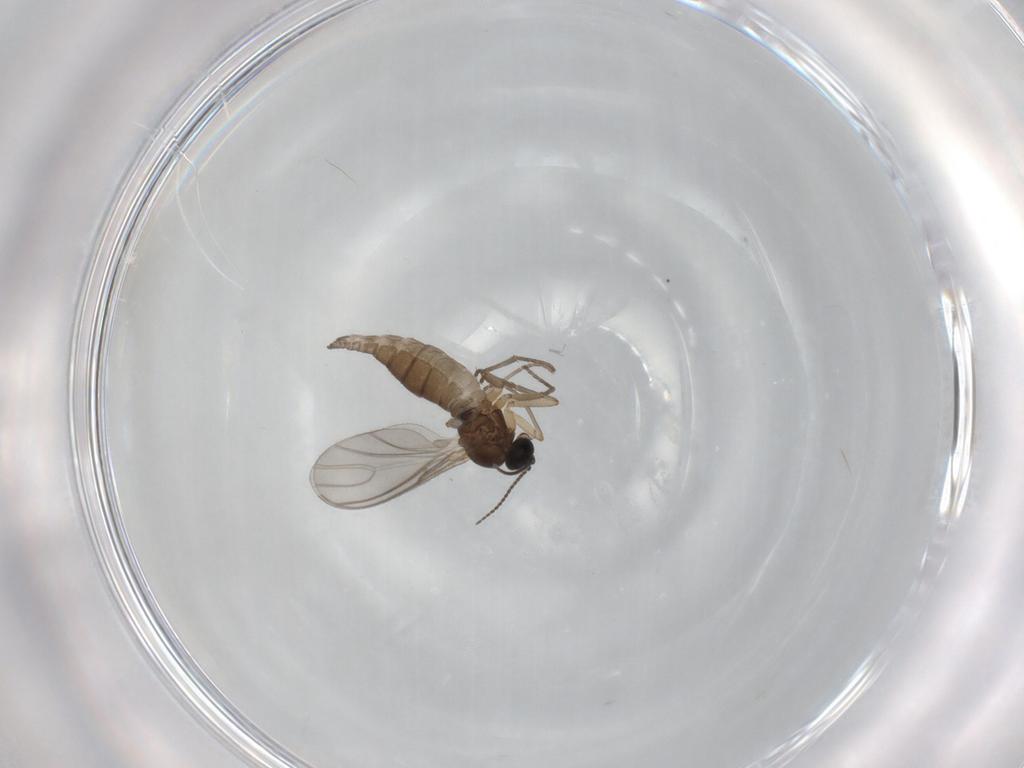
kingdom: Animalia
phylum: Arthropoda
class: Insecta
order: Diptera
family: Sciaridae
